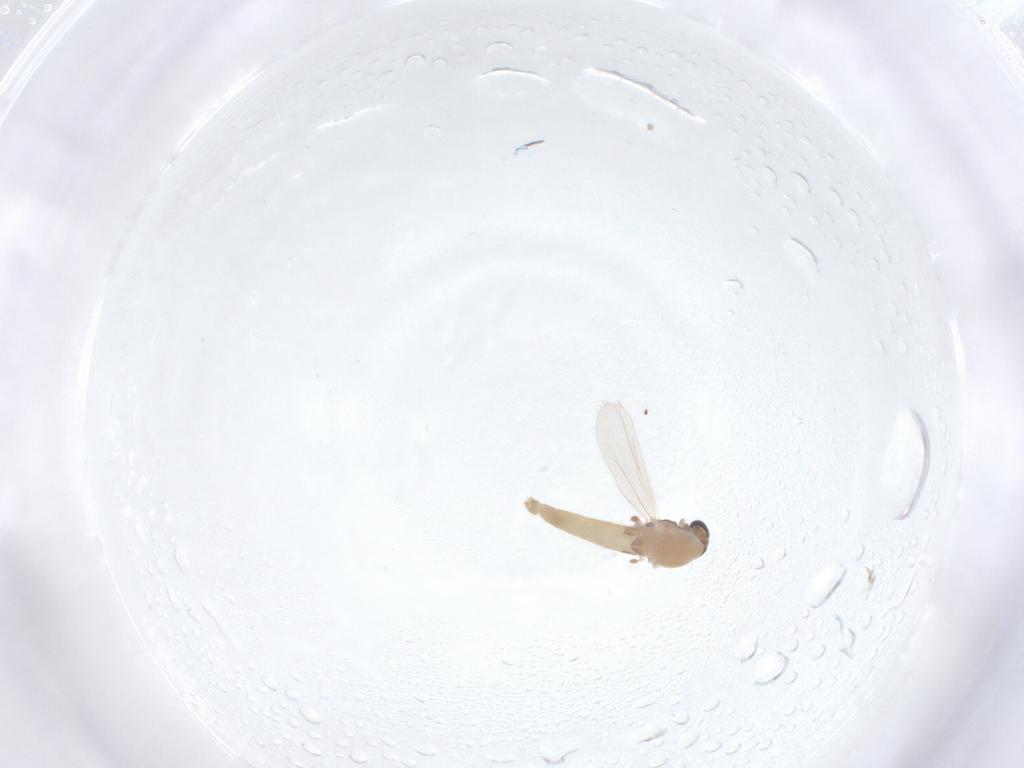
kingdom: Animalia
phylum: Arthropoda
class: Insecta
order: Diptera
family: Chironomidae
